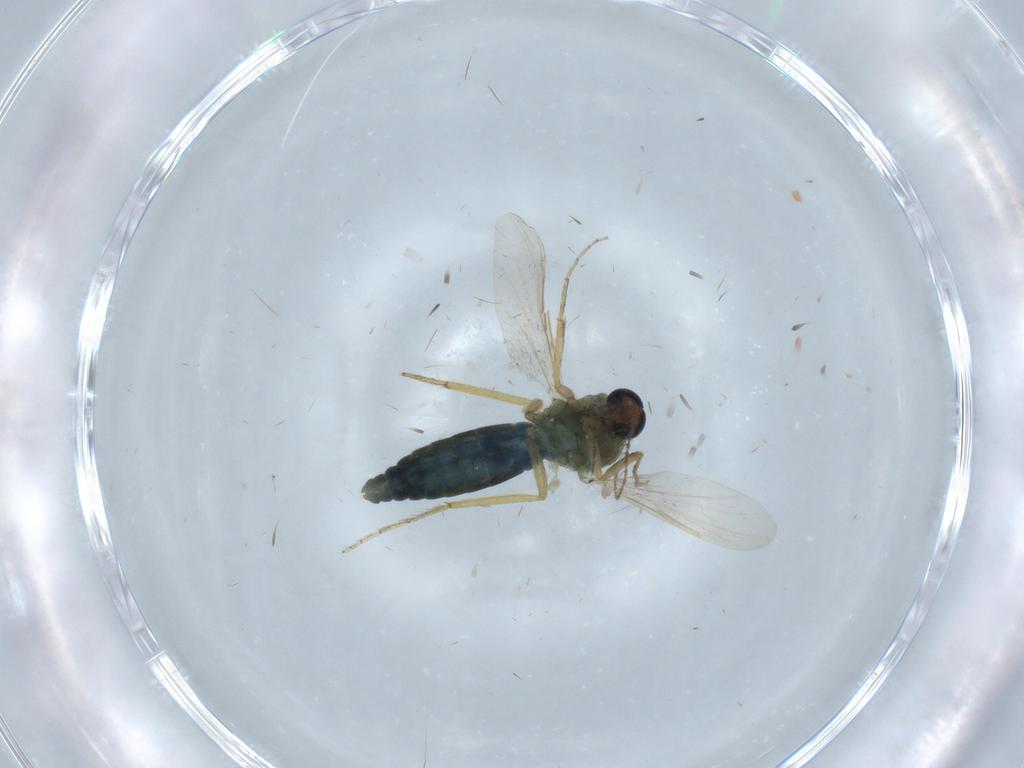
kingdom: Animalia
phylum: Arthropoda
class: Insecta
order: Diptera
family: Ceratopogonidae
